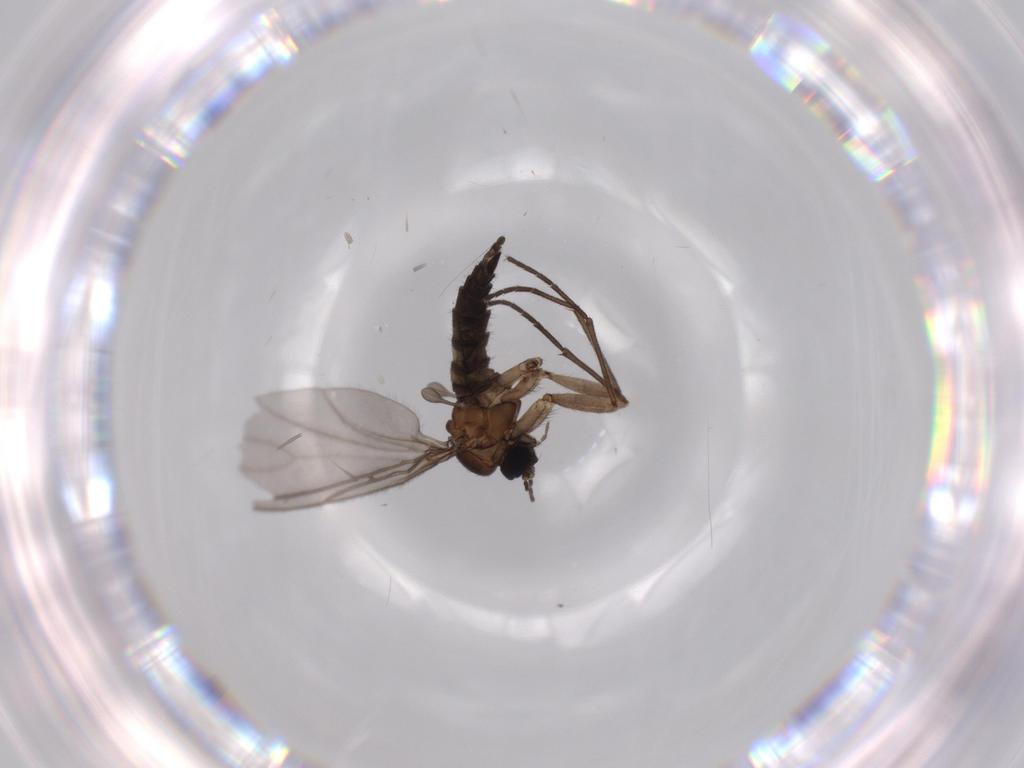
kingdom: Animalia
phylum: Arthropoda
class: Insecta
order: Diptera
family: Sciaridae
